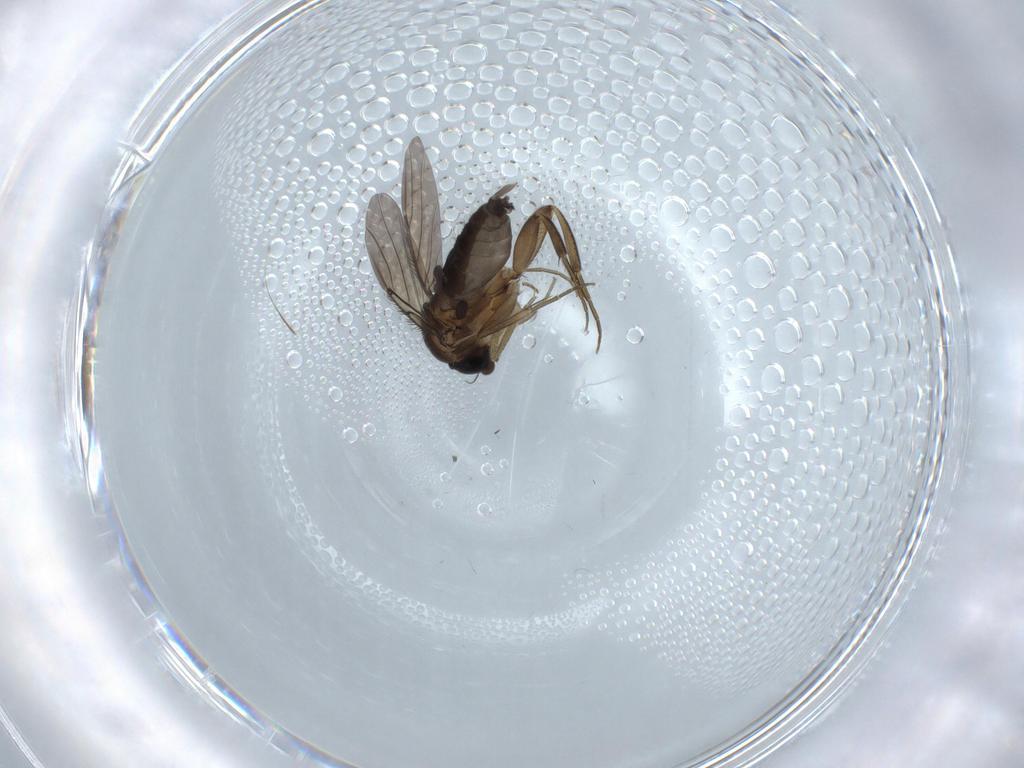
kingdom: Animalia
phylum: Arthropoda
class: Insecta
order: Diptera
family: Phoridae
